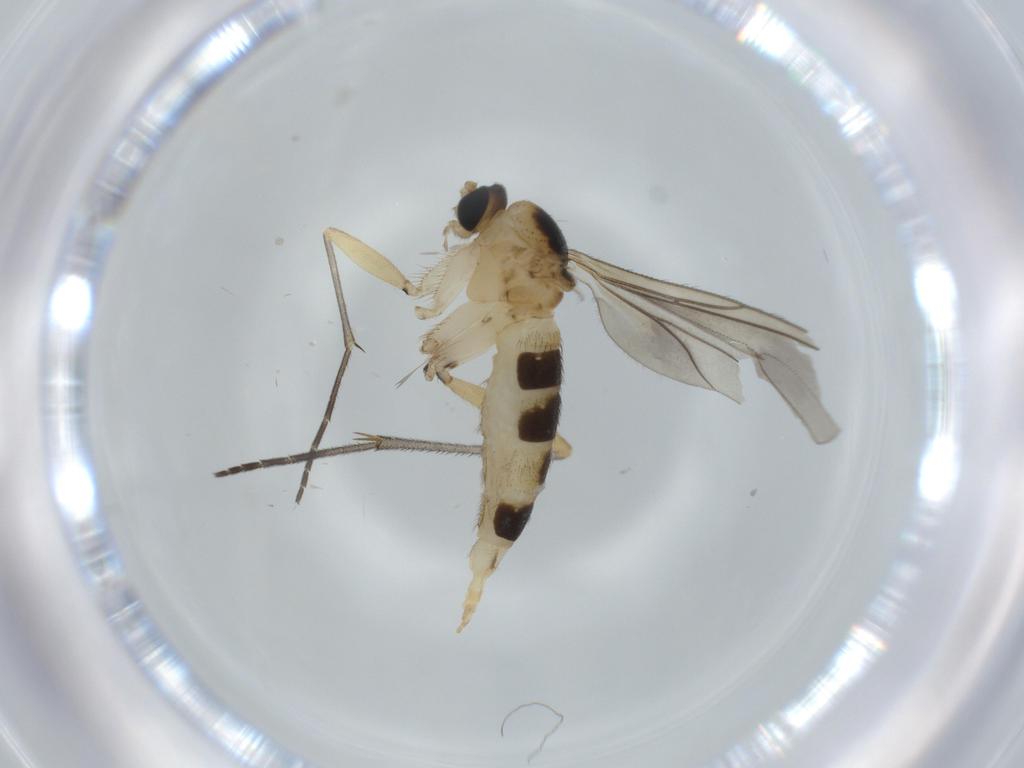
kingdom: Animalia
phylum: Arthropoda
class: Insecta
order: Diptera
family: Sciaridae
